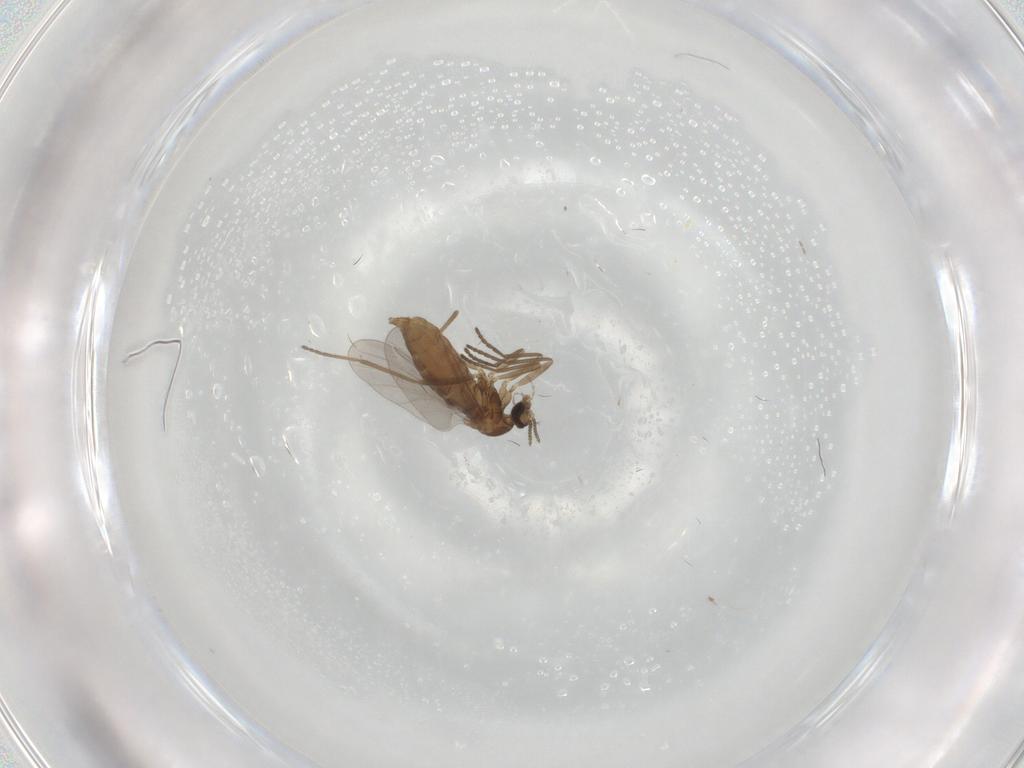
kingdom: Animalia
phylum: Arthropoda
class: Insecta
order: Diptera
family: Cecidomyiidae
